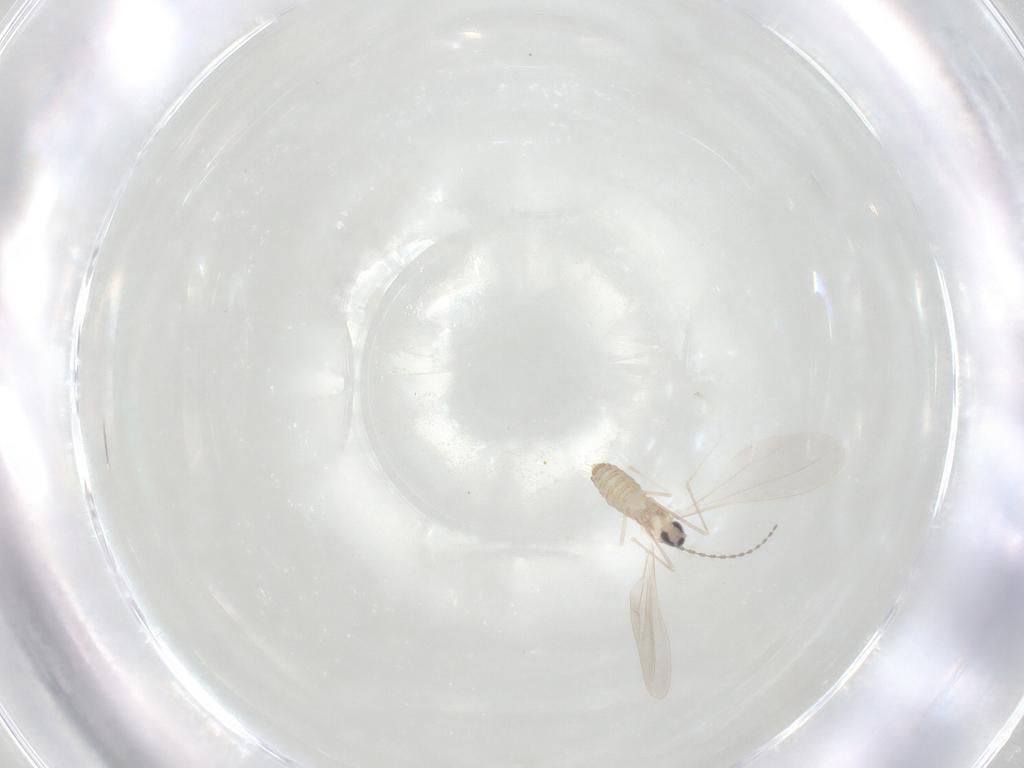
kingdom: Animalia
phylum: Arthropoda
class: Insecta
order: Diptera
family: Cecidomyiidae
